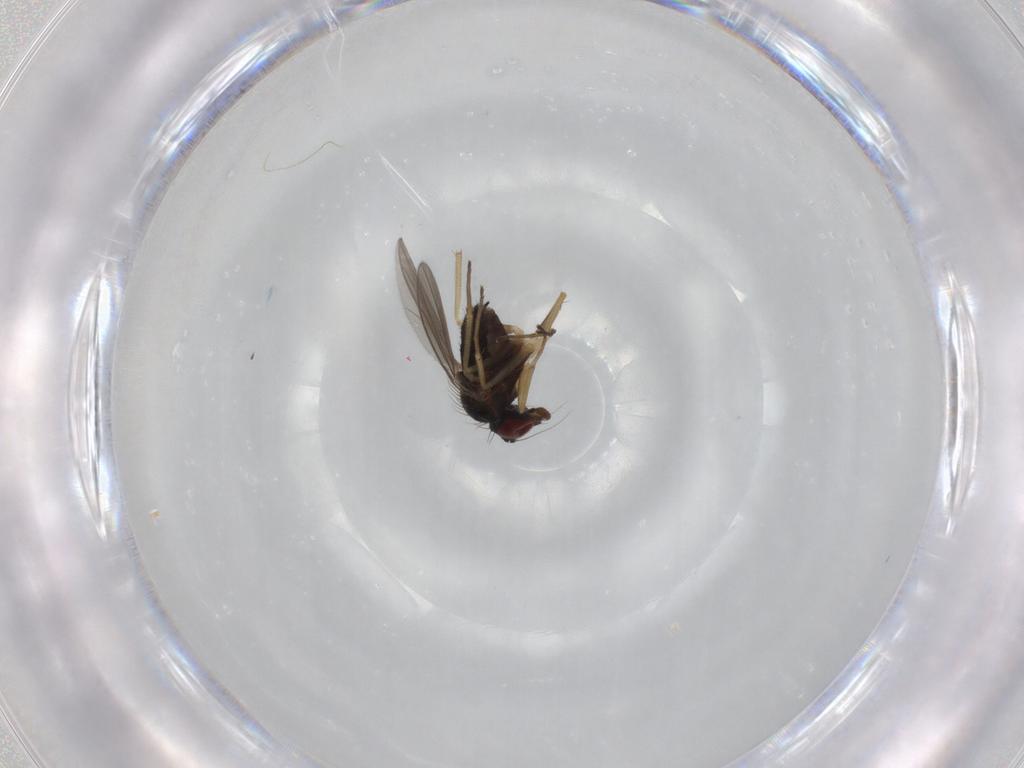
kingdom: Animalia
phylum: Arthropoda
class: Insecta
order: Diptera
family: Dolichopodidae
